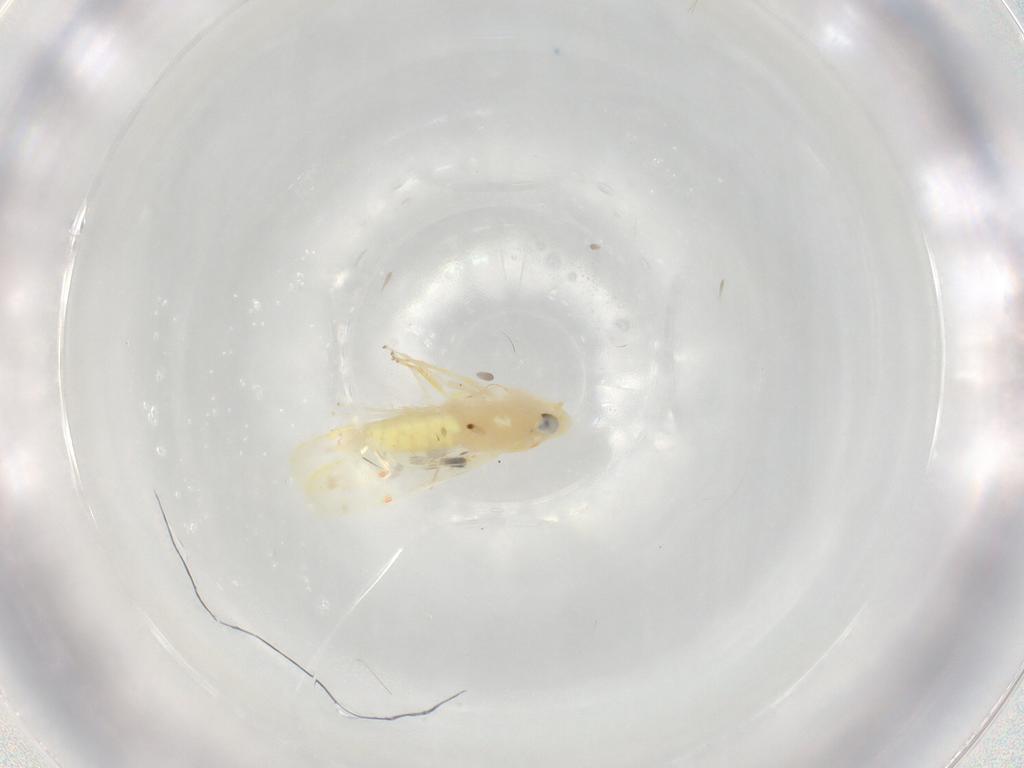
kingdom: Animalia
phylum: Arthropoda
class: Insecta
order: Hemiptera
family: Cicadellidae
